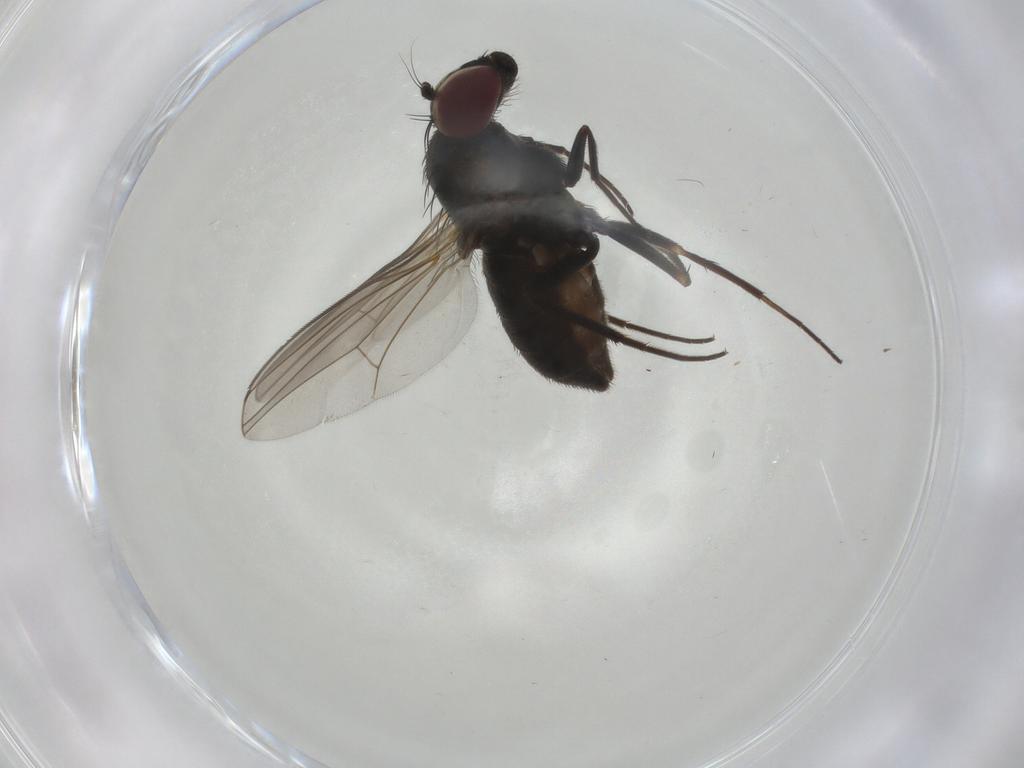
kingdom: Animalia
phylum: Arthropoda
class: Insecta
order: Diptera
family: Dolichopodidae
